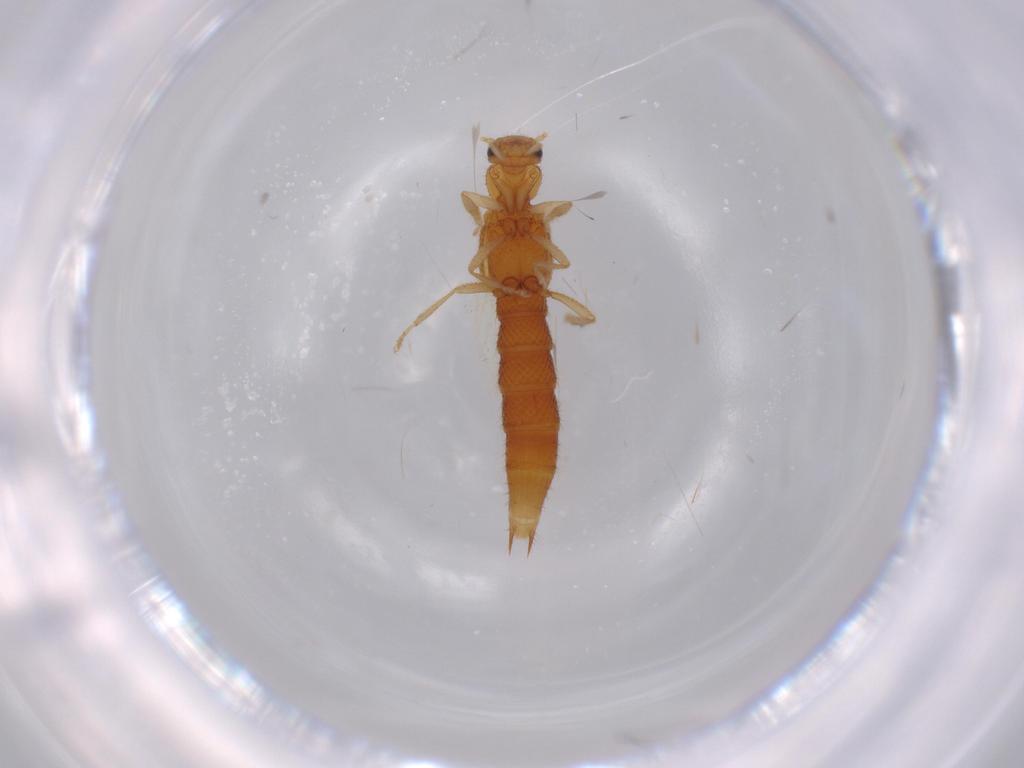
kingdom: Animalia
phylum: Arthropoda
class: Insecta
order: Coleoptera
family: Staphylinidae
